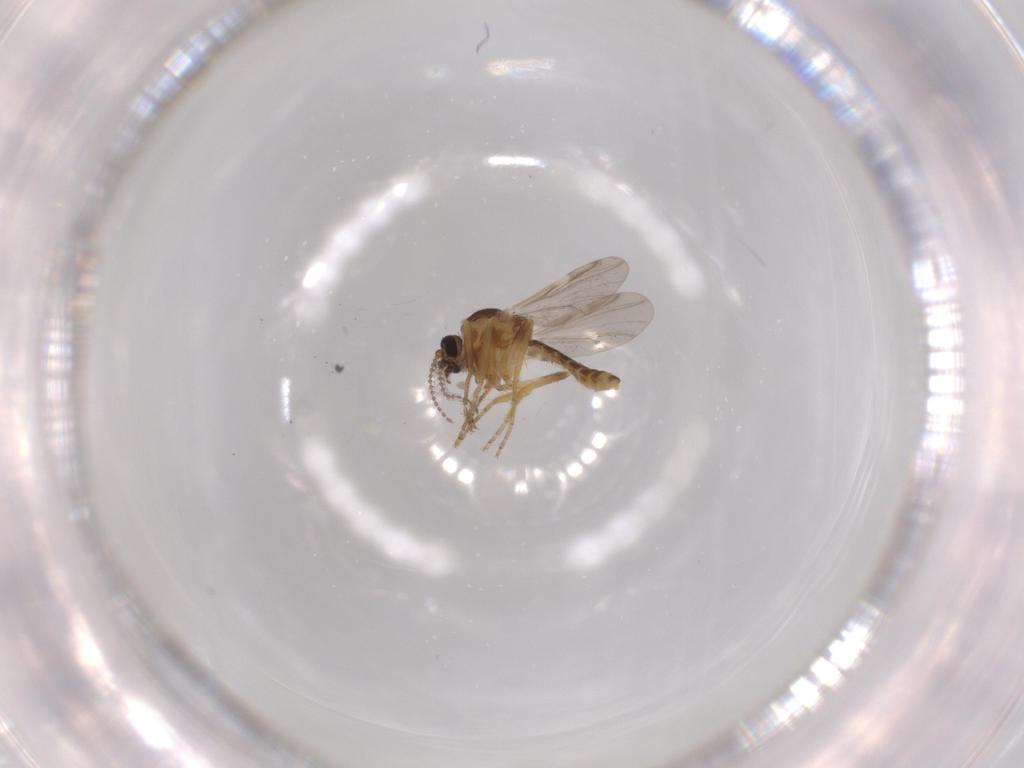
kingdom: Animalia
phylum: Arthropoda
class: Insecta
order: Diptera
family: Ceratopogonidae
